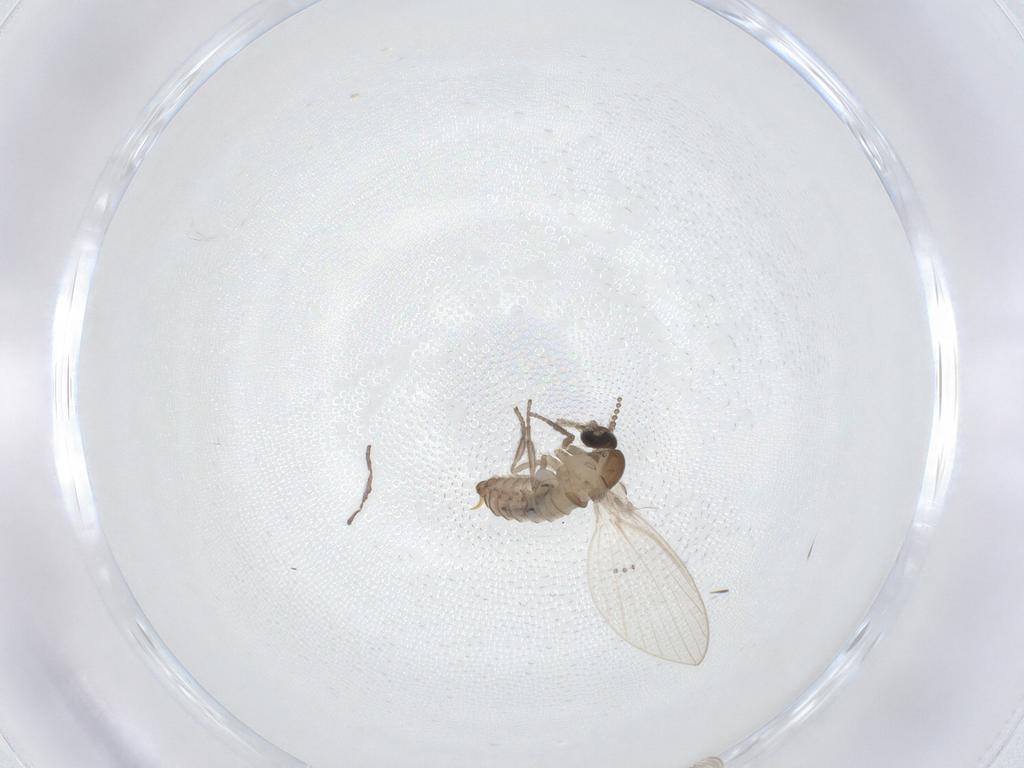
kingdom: Animalia
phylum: Arthropoda
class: Insecta
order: Diptera
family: Psychodidae
